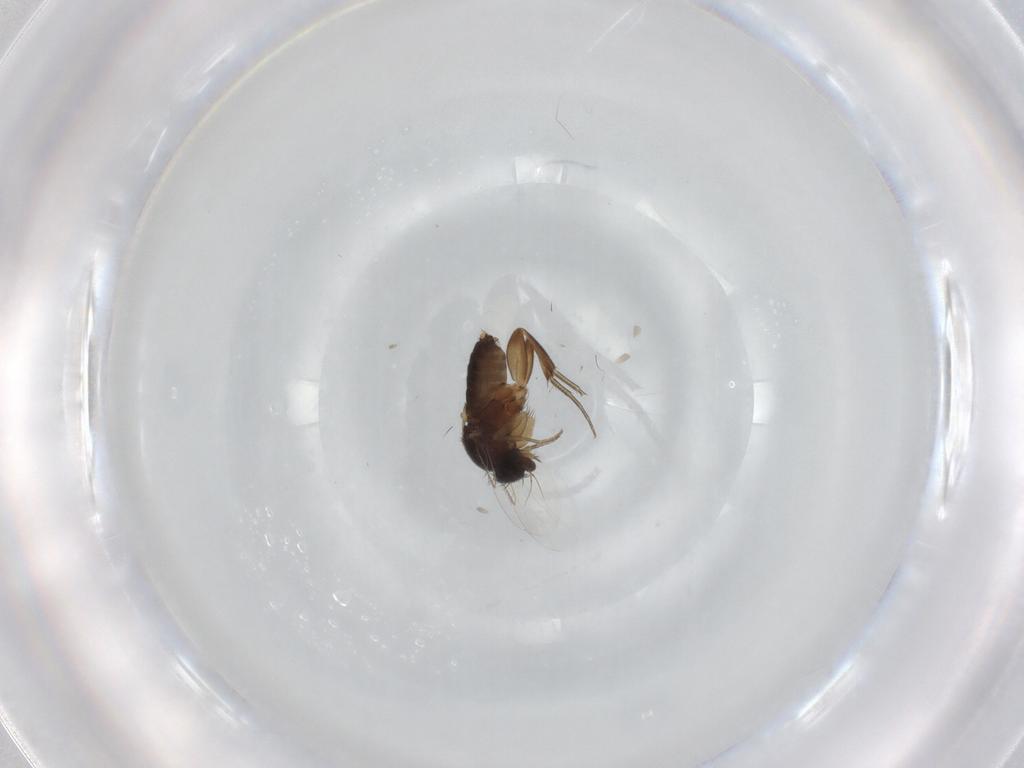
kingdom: Animalia
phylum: Arthropoda
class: Insecta
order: Diptera
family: Phoridae
